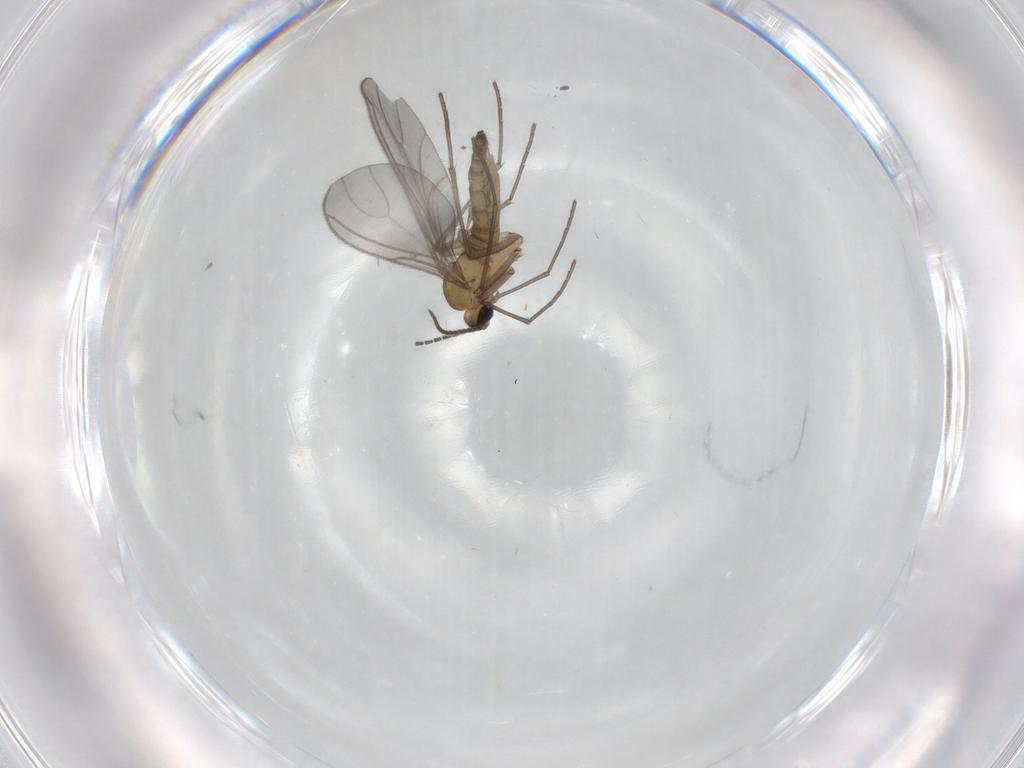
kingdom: Animalia
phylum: Arthropoda
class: Insecta
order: Diptera
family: Sciaridae
